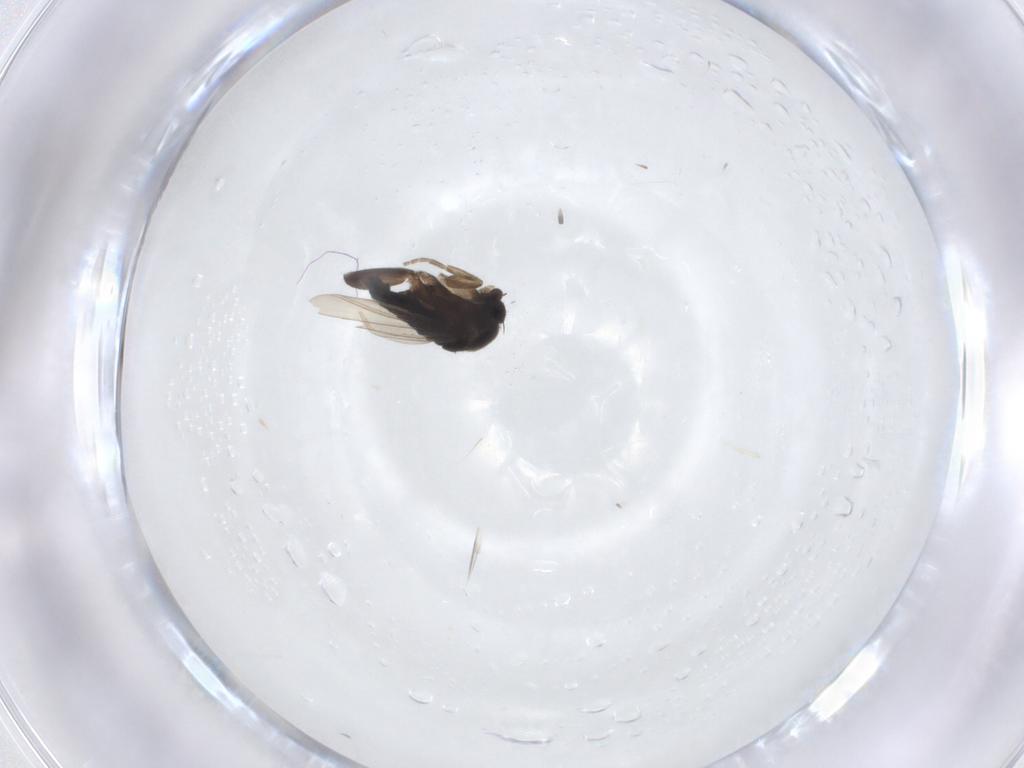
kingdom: Animalia
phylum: Arthropoda
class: Insecta
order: Diptera
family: Phoridae
